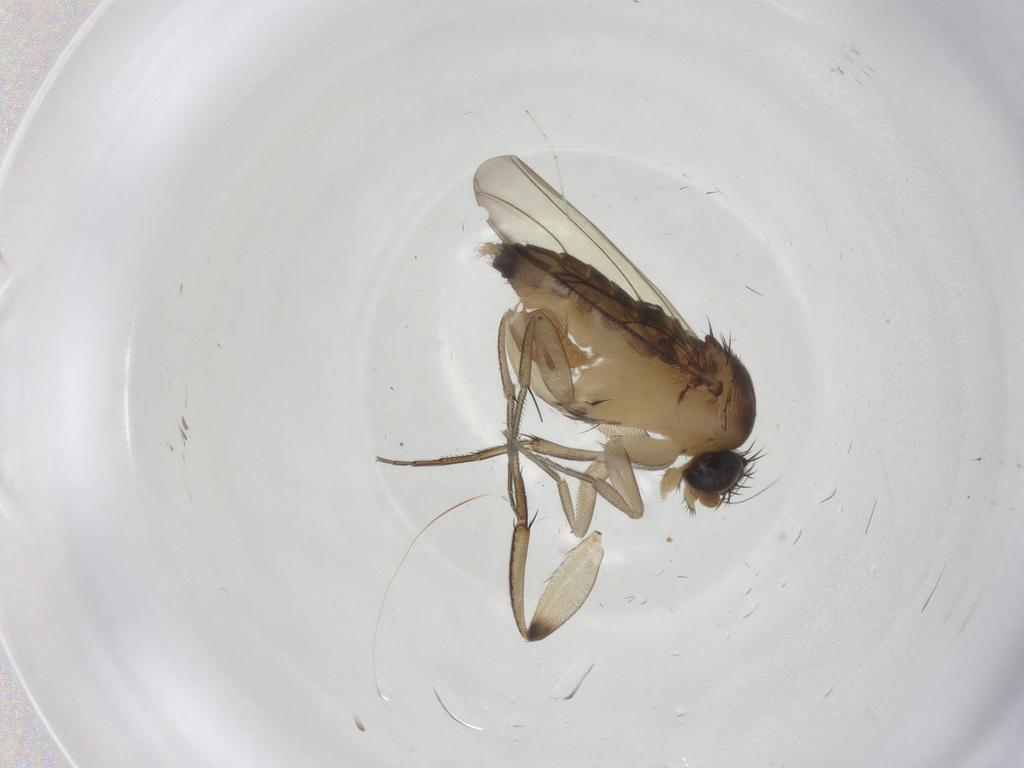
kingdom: Animalia
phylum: Arthropoda
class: Insecta
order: Diptera
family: Phoridae
